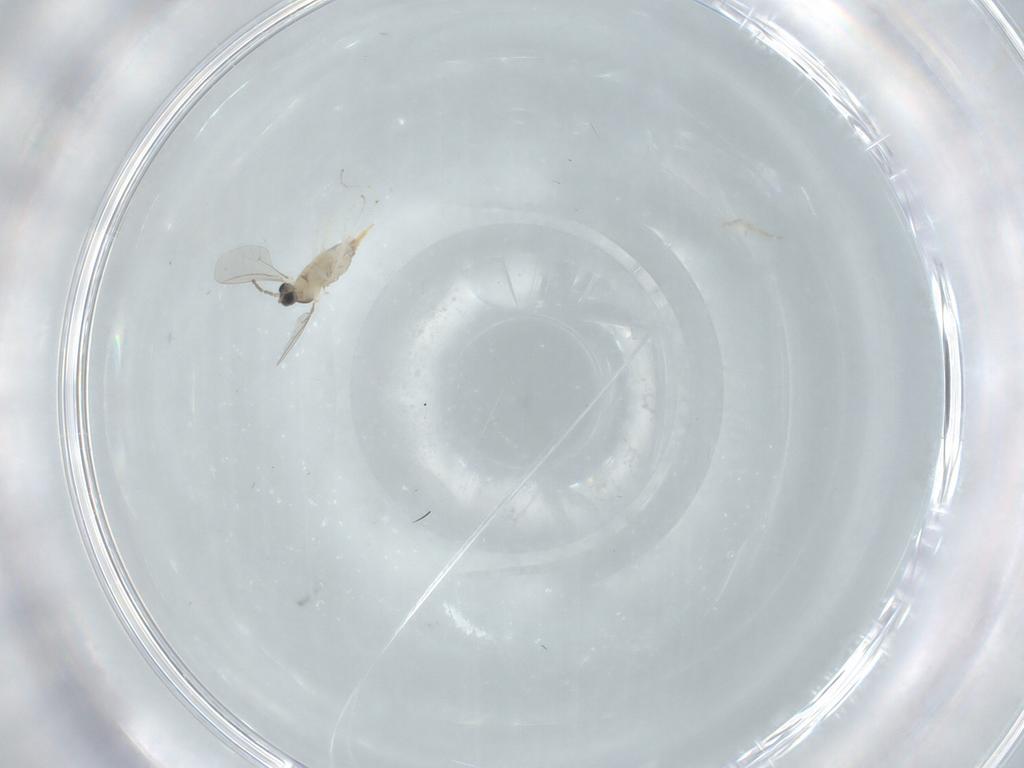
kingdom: Animalia
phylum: Arthropoda
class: Insecta
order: Diptera
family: Cecidomyiidae
